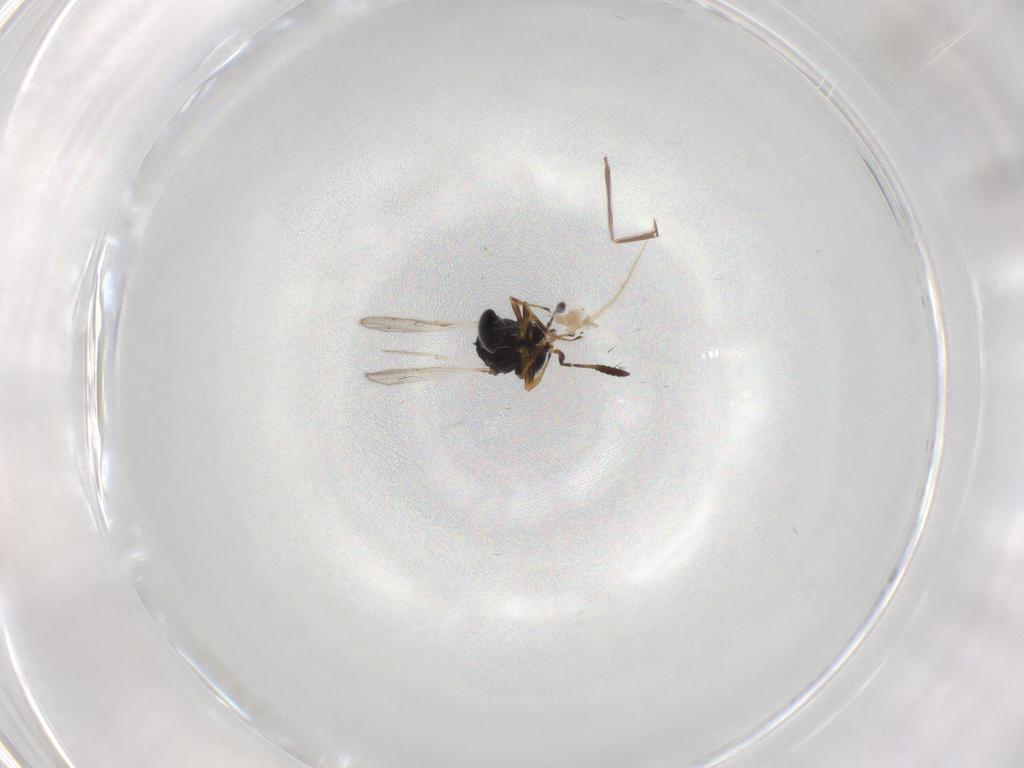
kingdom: Animalia
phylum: Arthropoda
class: Insecta
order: Hymenoptera
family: Scelionidae
